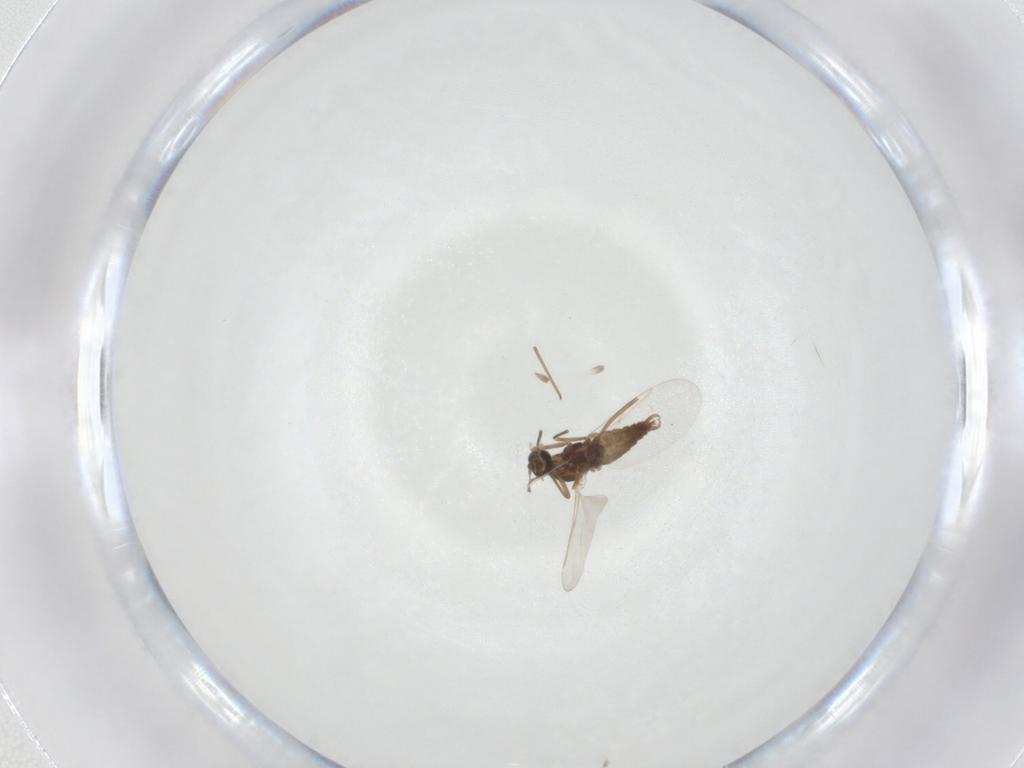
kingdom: Animalia
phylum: Arthropoda
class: Insecta
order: Diptera
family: Cecidomyiidae
